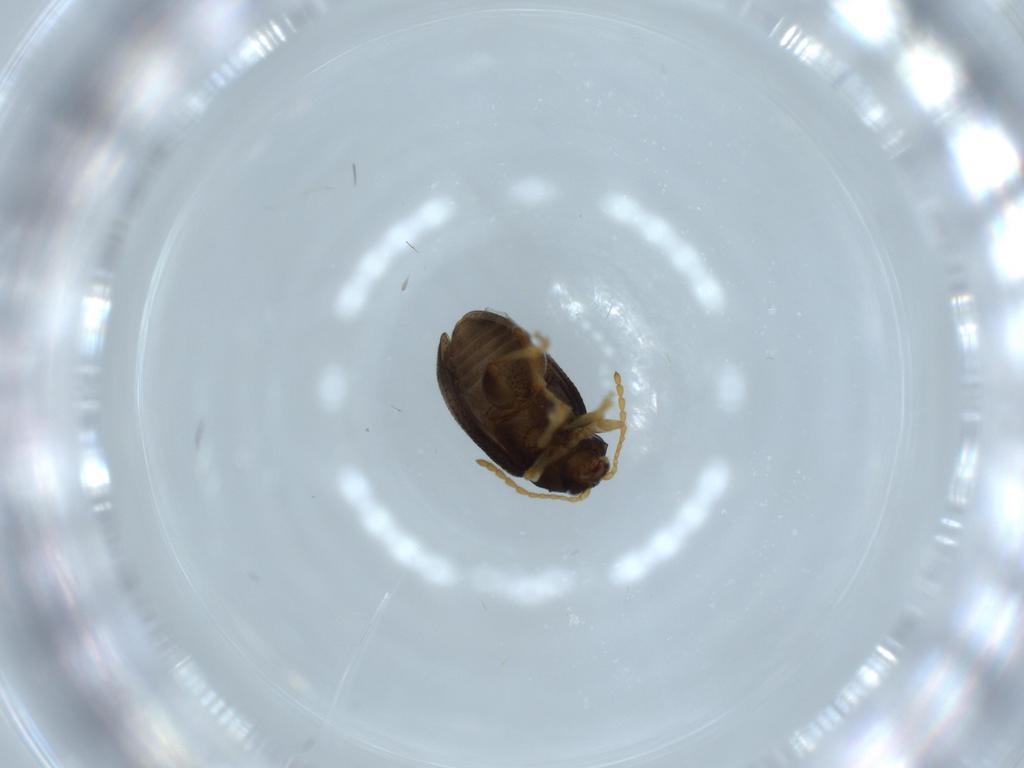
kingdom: Animalia
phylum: Arthropoda
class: Insecta
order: Coleoptera
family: Chrysomelidae
